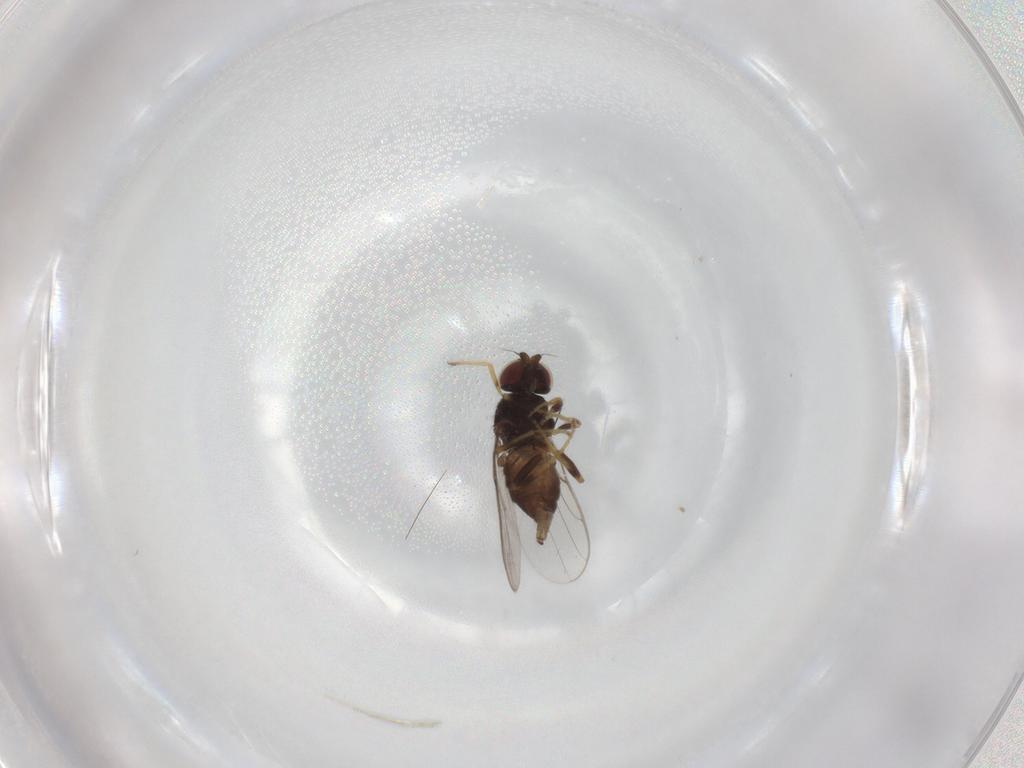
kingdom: Animalia
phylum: Arthropoda
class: Insecta
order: Diptera
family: Chloropidae
